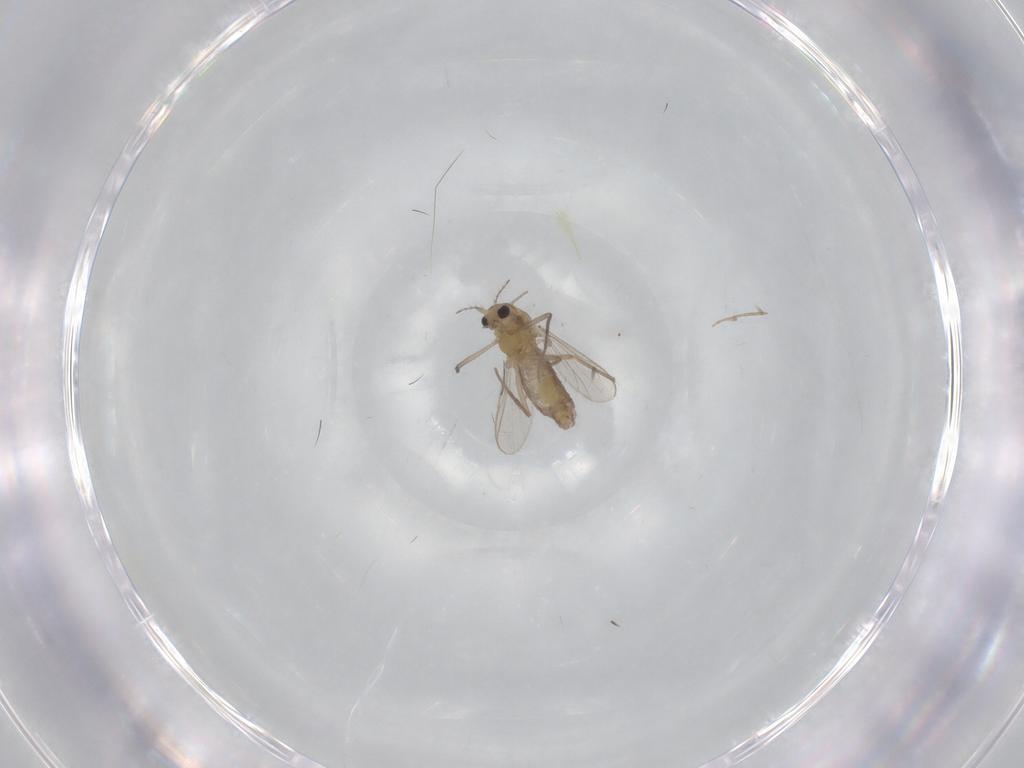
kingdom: Animalia
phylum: Arthropoda
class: Insecta
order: Diptera
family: Chironomidae
